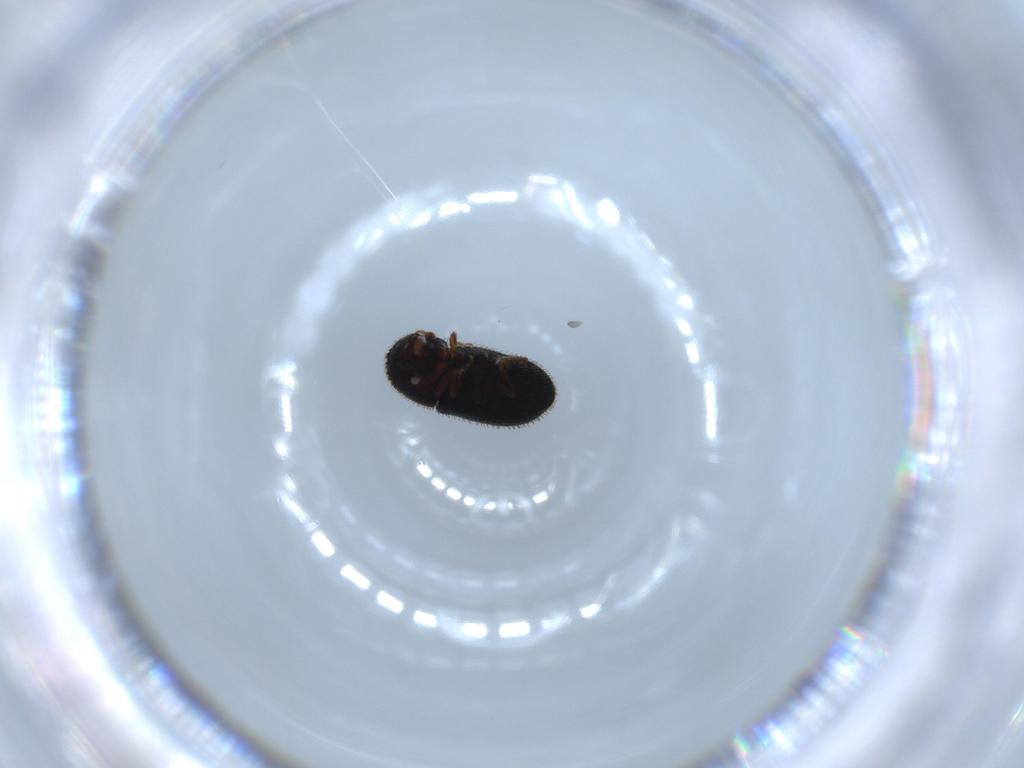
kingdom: Animalia
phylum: Arthropoda
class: Insecta
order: Coleoptera
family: Curculionidae
